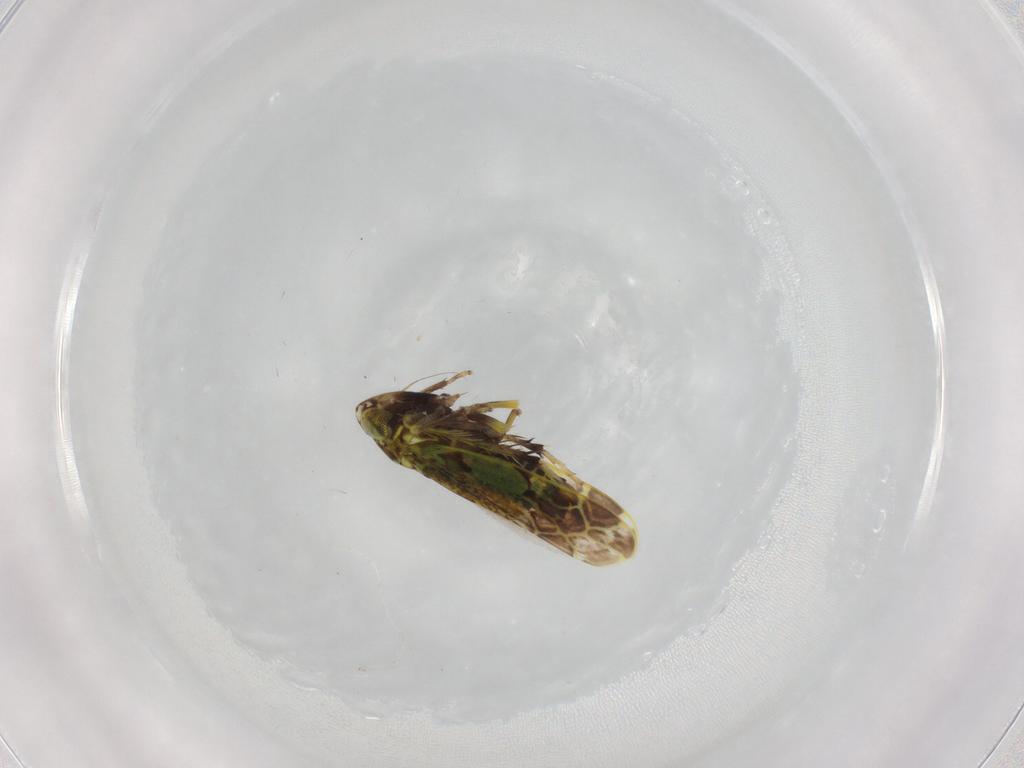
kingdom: Animalia
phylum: Arthropoda
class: Insecta
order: Hemiptera
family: Cicadellidae
